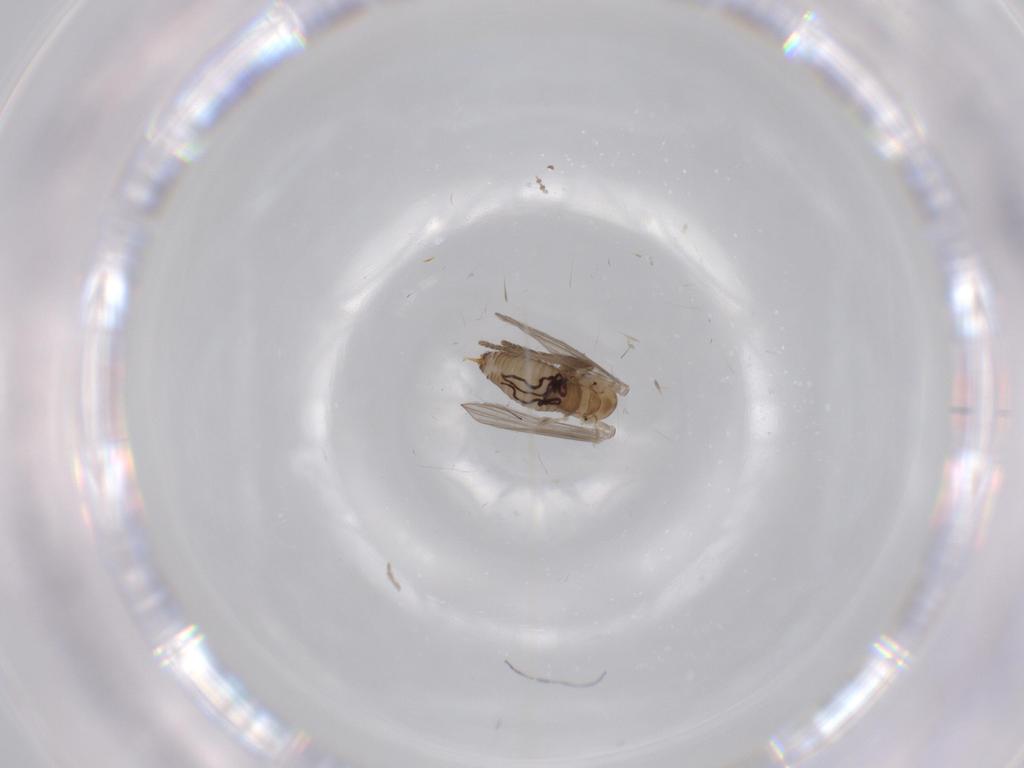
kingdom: Animalia
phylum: Arthropoda
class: Insecta
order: Diptera
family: Psychodidae
